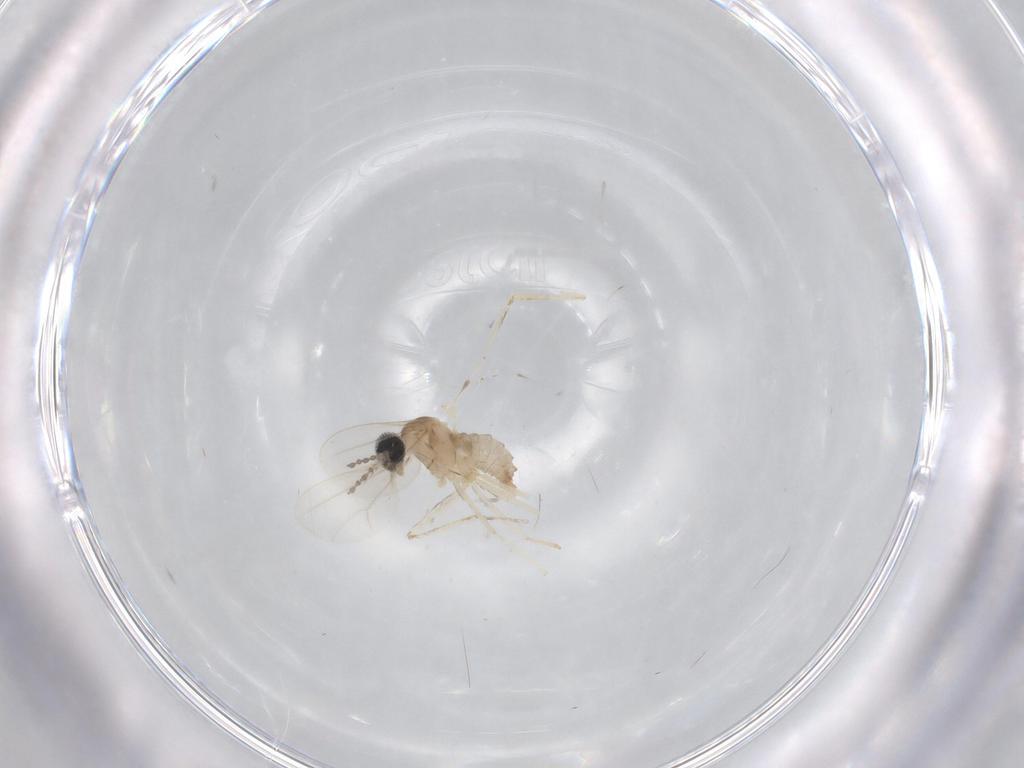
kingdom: Animalia
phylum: Arthropoda
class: Insecta
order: Diptera
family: Cecidomyiidae
